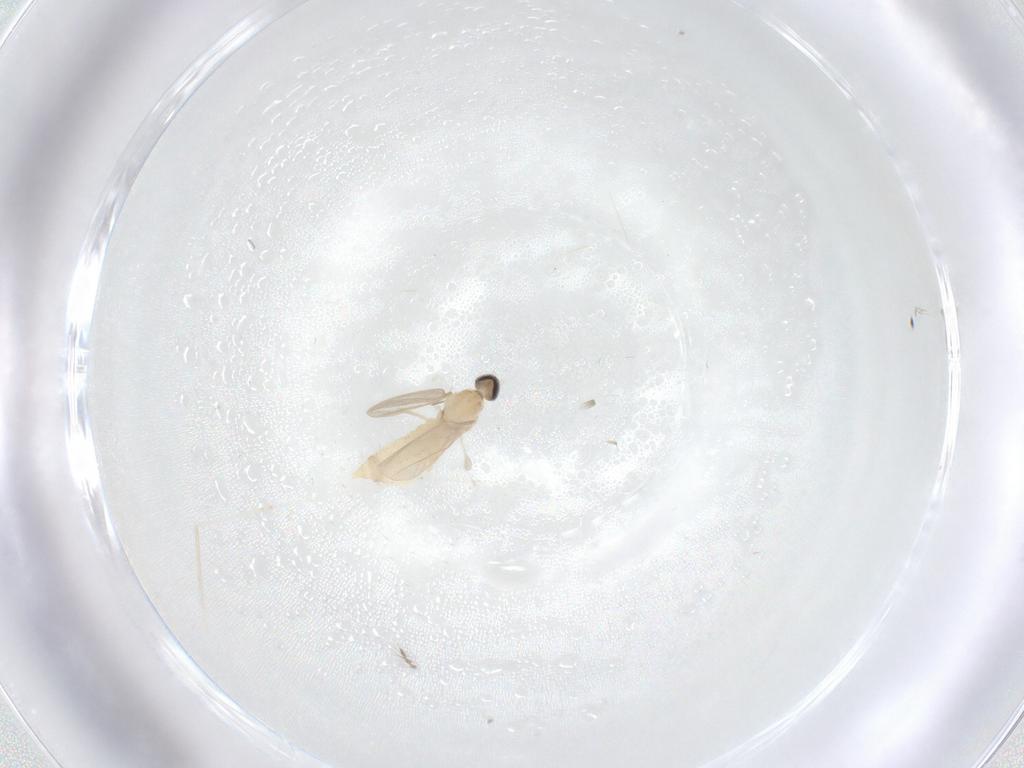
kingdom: Animalia
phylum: Arthropoda
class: Insecta
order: Diptera
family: Cecidomyiidae
